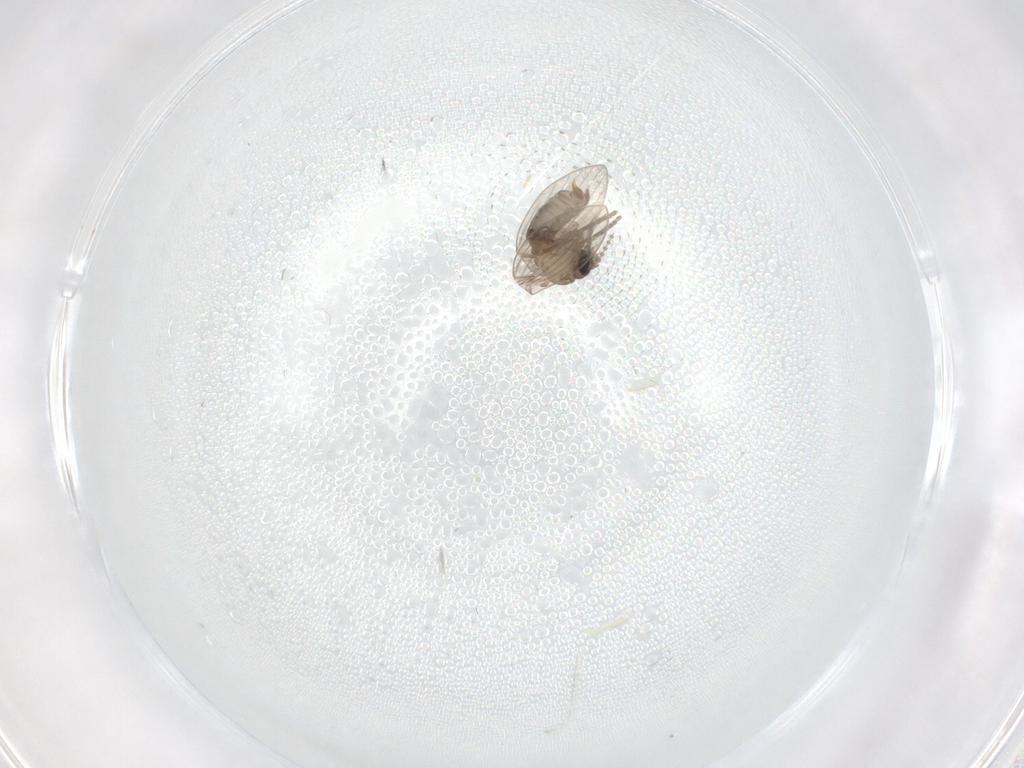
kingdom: Animalia
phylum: Arthropoda
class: Insecta
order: Diptera
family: Psychodidae
